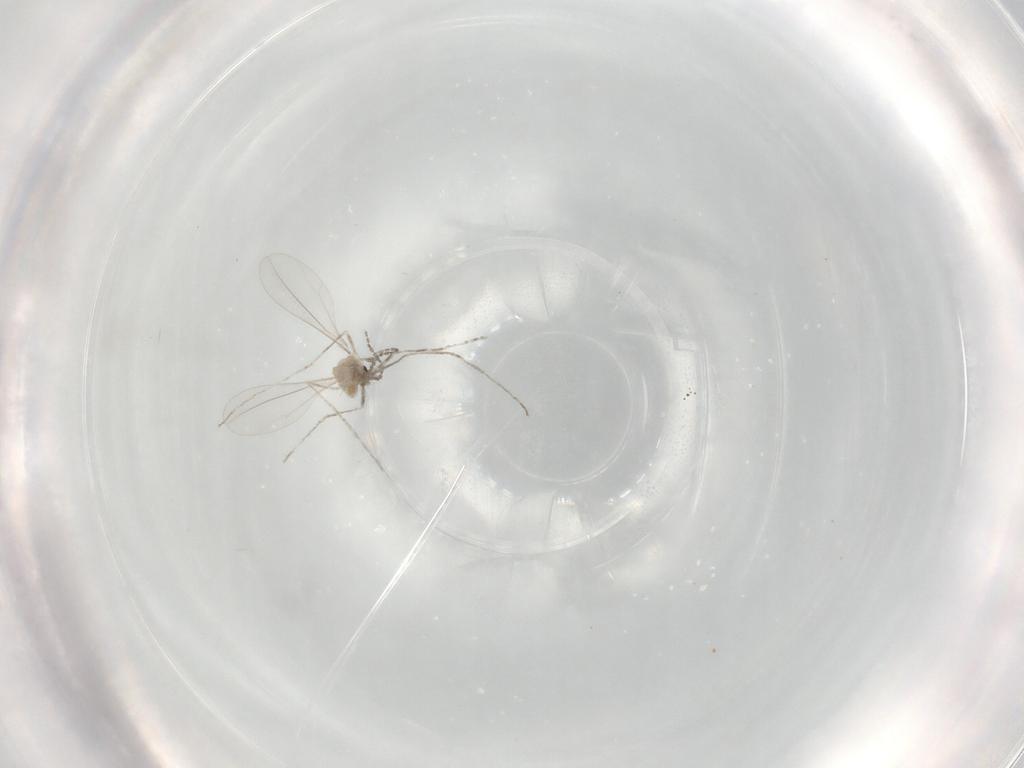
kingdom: Animalia
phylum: Arthropoda
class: Insecta
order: Diptera
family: Cecidomyiidae
